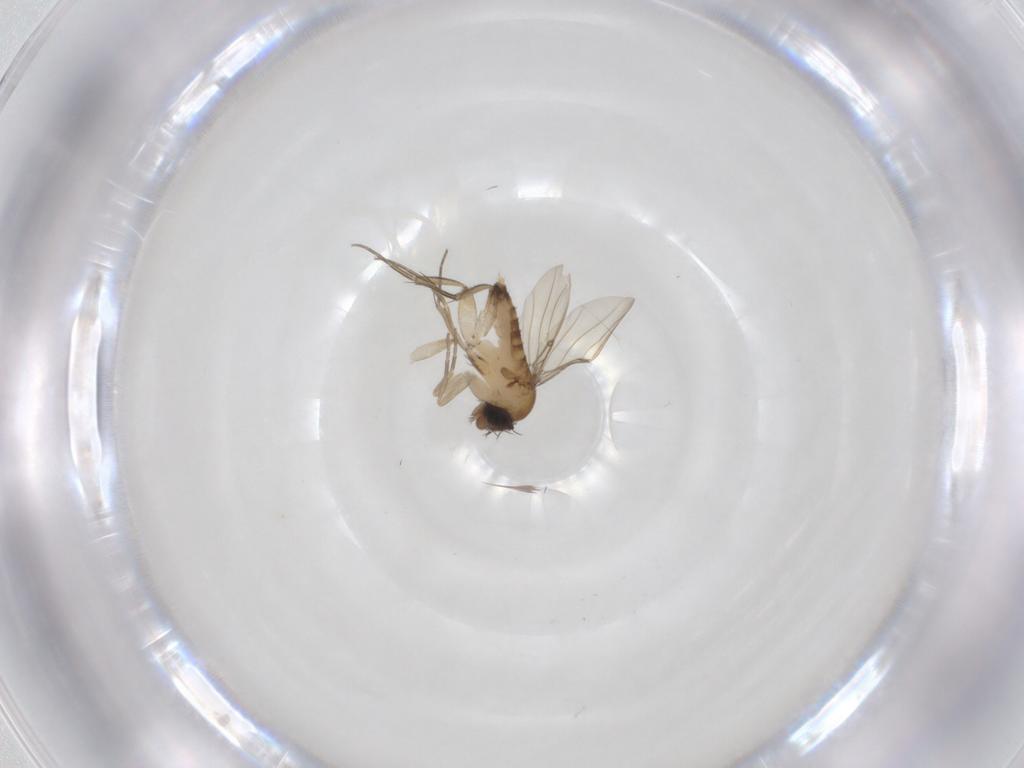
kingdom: Animalia
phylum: Arthropoda
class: Insecta
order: Diptera
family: Phoridae
